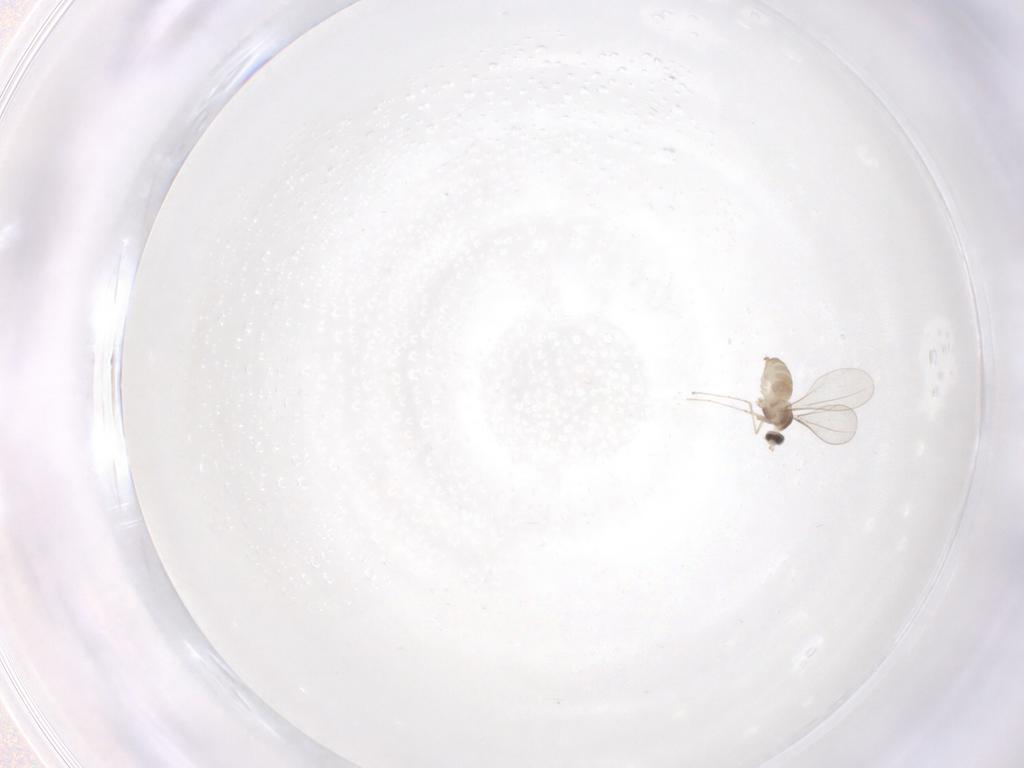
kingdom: Animalia
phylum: Arthropoda
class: Insecta
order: Diptera
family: Cecidomyiidae
